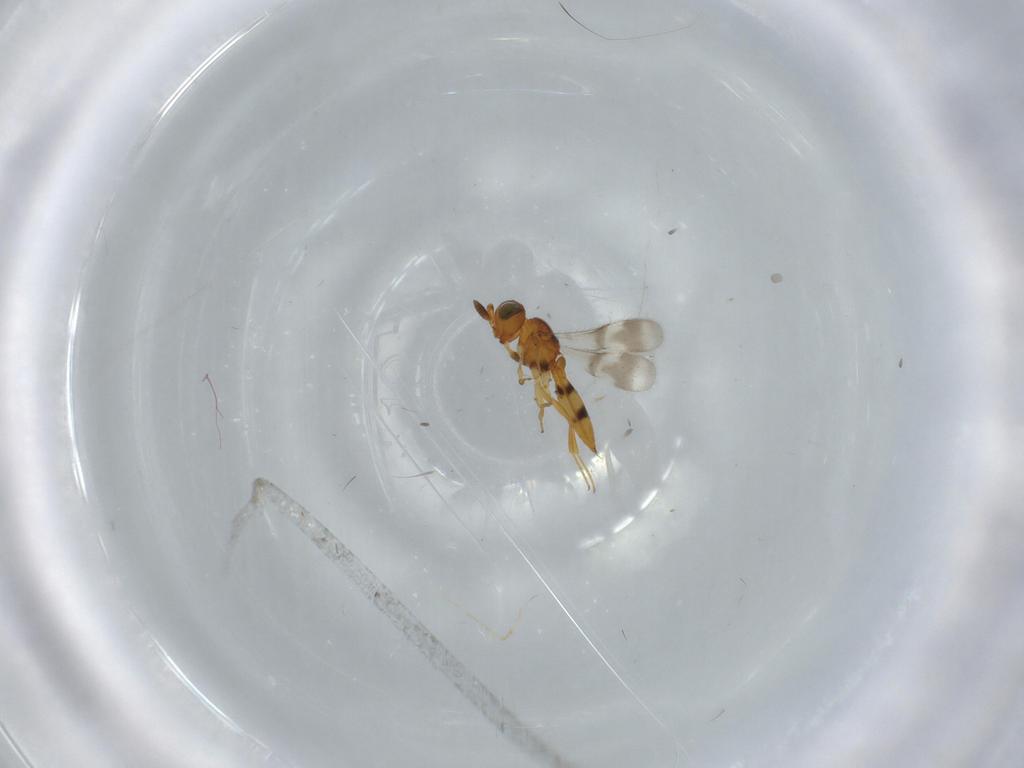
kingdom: Animalia
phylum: Arthropoda
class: Insecta
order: Hymenoptera
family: Scelionidae
